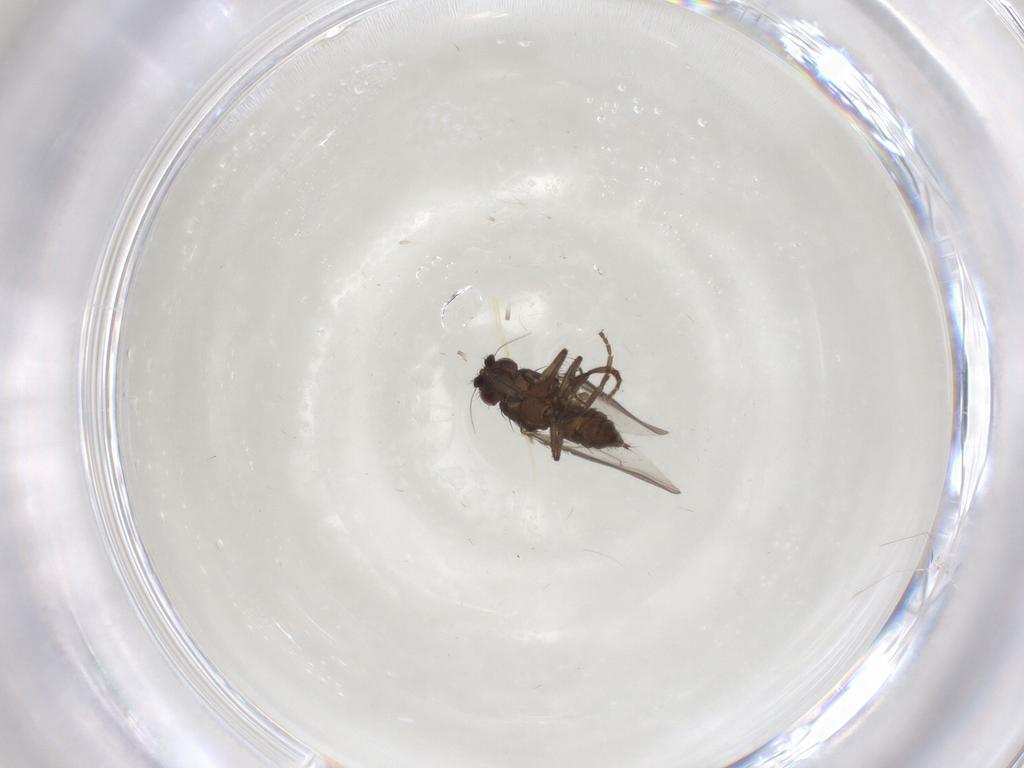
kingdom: Animalia
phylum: Arthropoda
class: Insecta
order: Diptera
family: Sphaeroceridae
